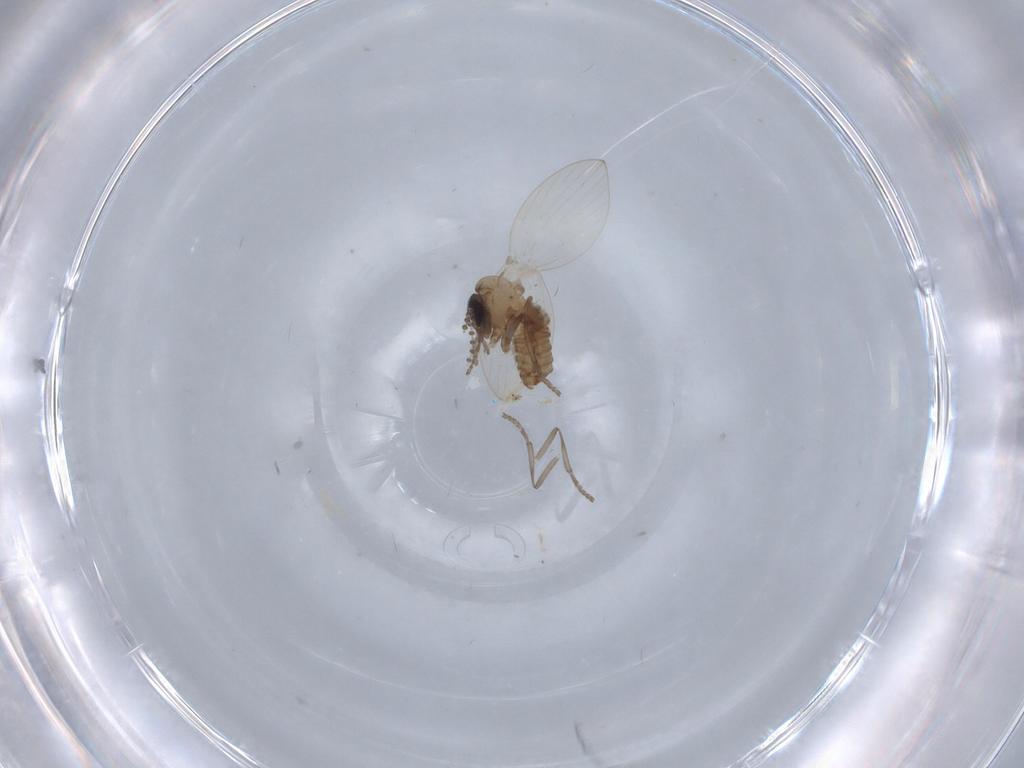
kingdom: Animalia
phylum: Arthropoda
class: Insecta
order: Diptera
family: Psychodidae
